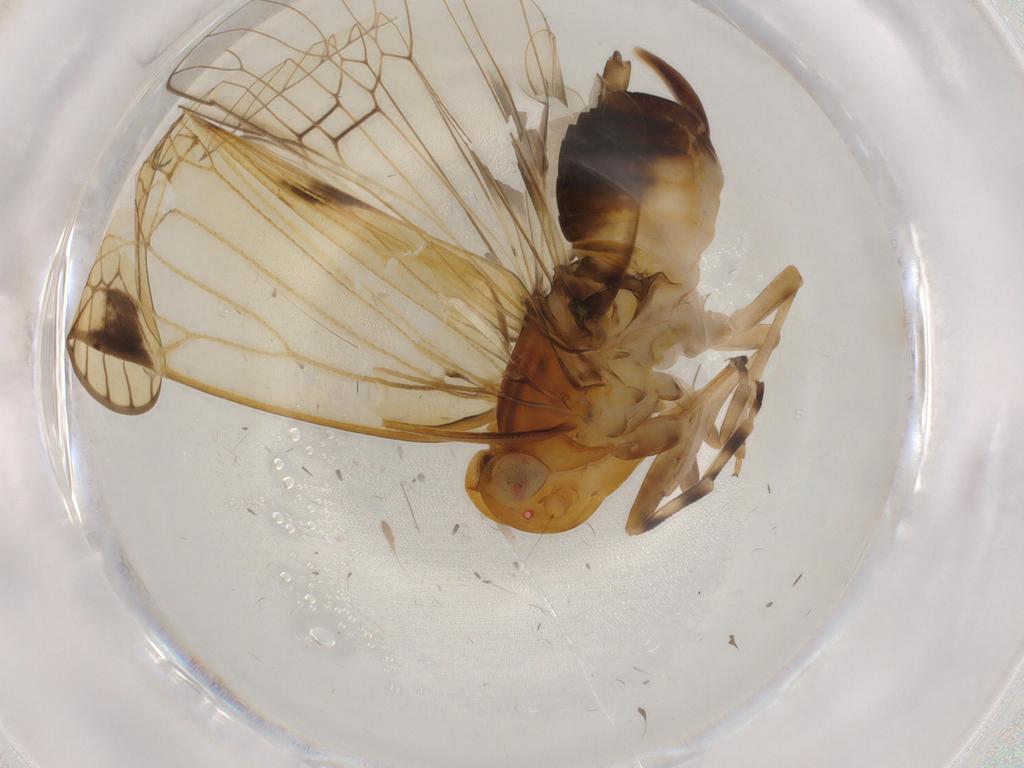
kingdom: Animalia
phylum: Arthropoda
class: Insecta
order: Hemiptera
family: Cixiidae
